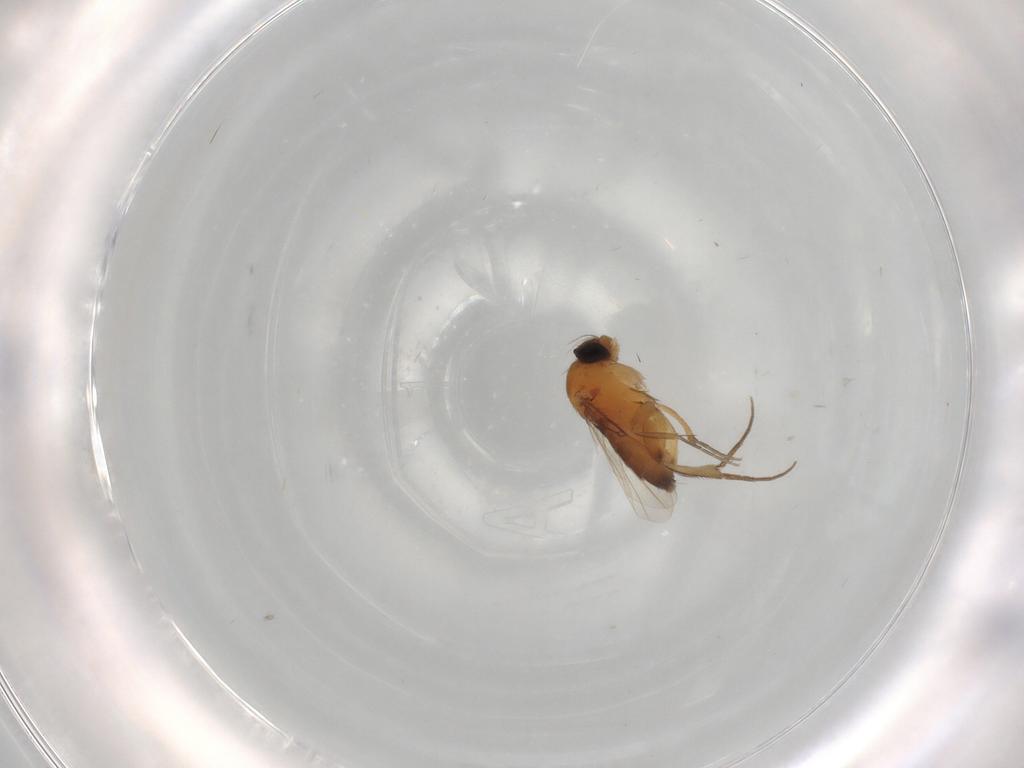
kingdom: Animalia
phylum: Arthropoda
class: Insecta
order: Diptera
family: Phoridae
